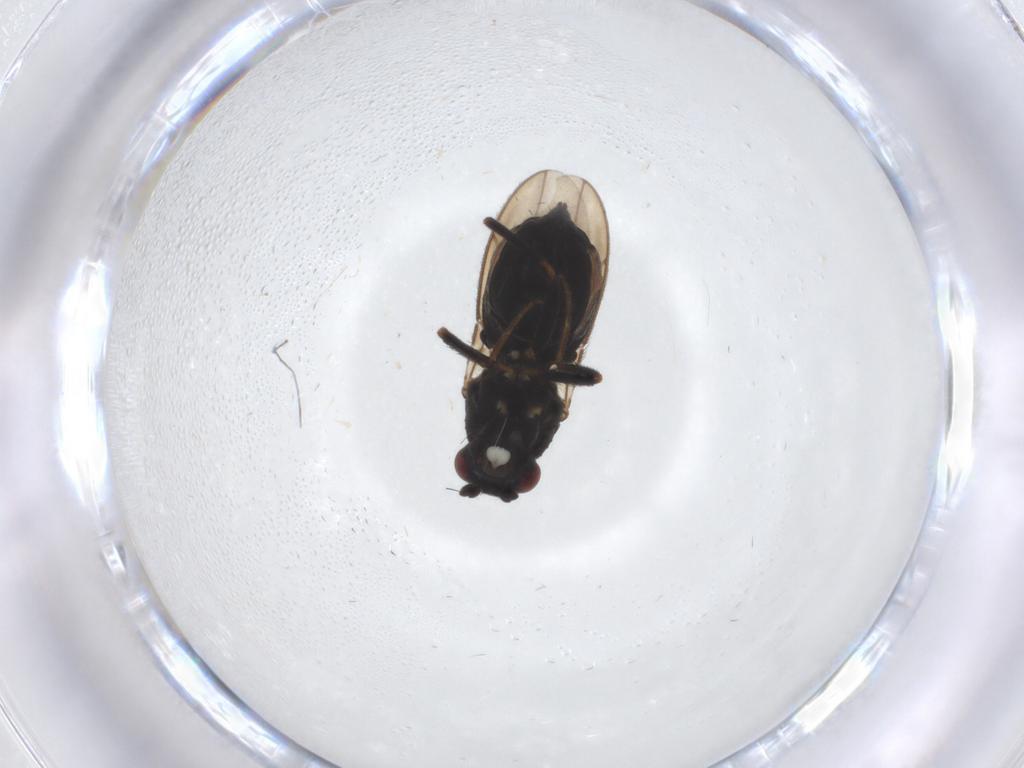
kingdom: Animalia
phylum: Arthropoda
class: Insecta
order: Diptera
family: Sphaeroceridae
